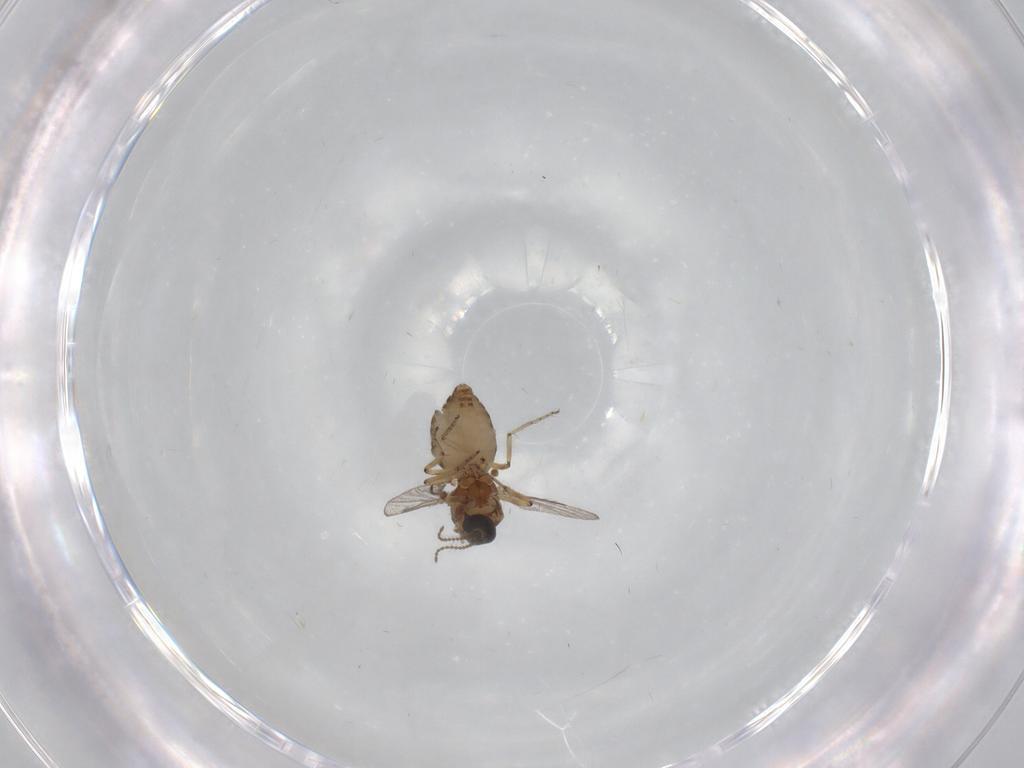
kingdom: Animalia
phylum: Arthropoda
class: Insecta
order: Diptera
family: Ceratopogonidae
